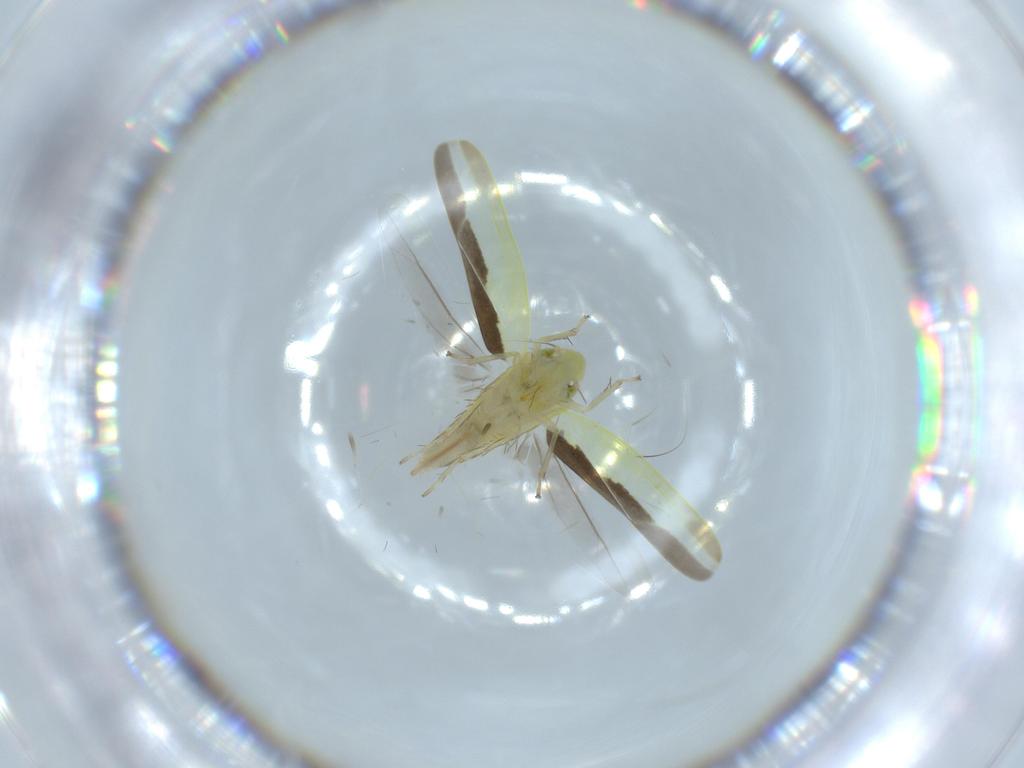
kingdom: Animalia
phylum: Arthropoda
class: Insecta
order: Hemiptera
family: Cicadellidae
